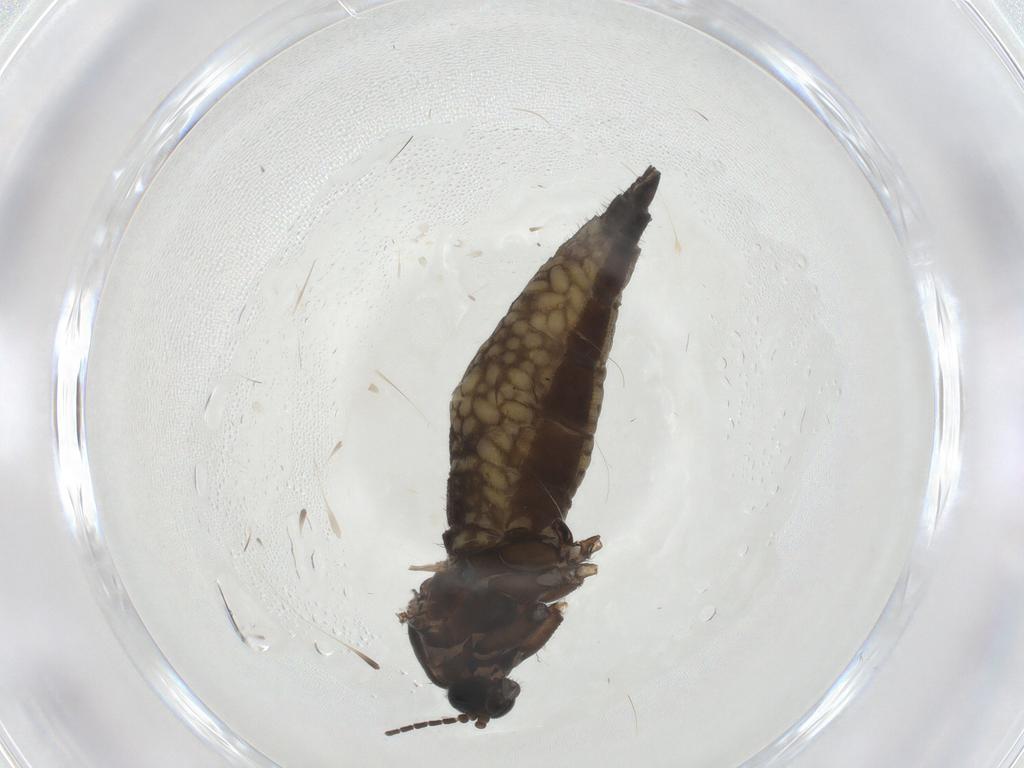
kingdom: Animalia
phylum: Arthropoda
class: Insecta
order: Diptera
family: Sciaridae
